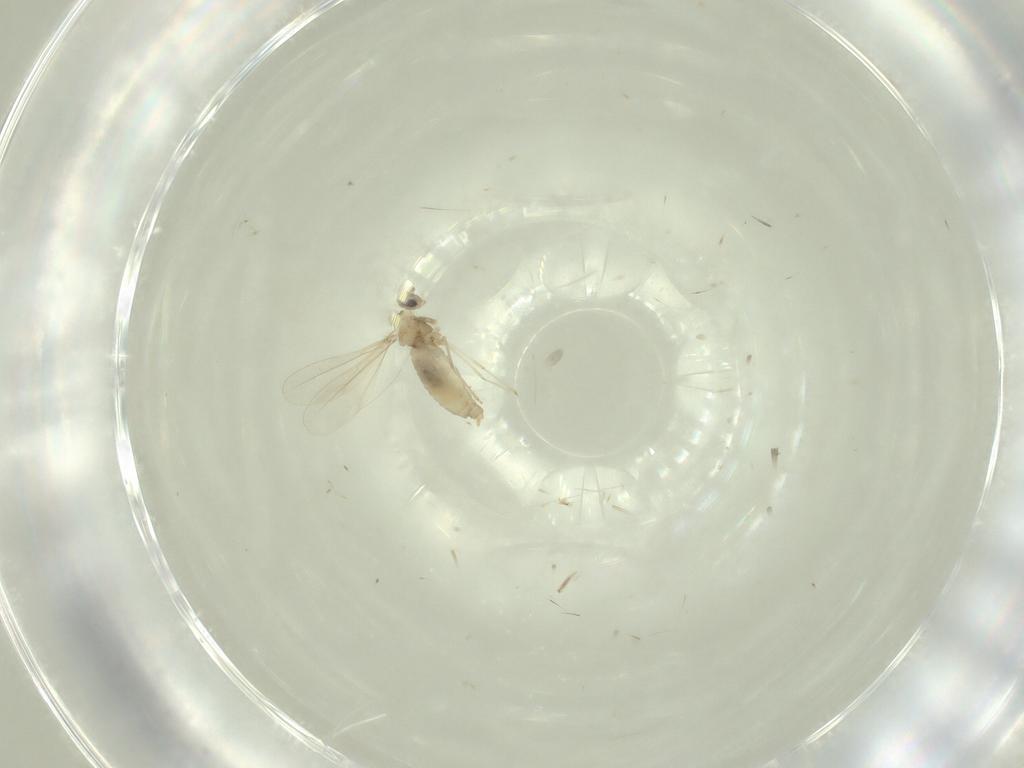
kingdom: Animalia
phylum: Arthropoda
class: Insecta
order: Diptera
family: Cecidomyiidae
